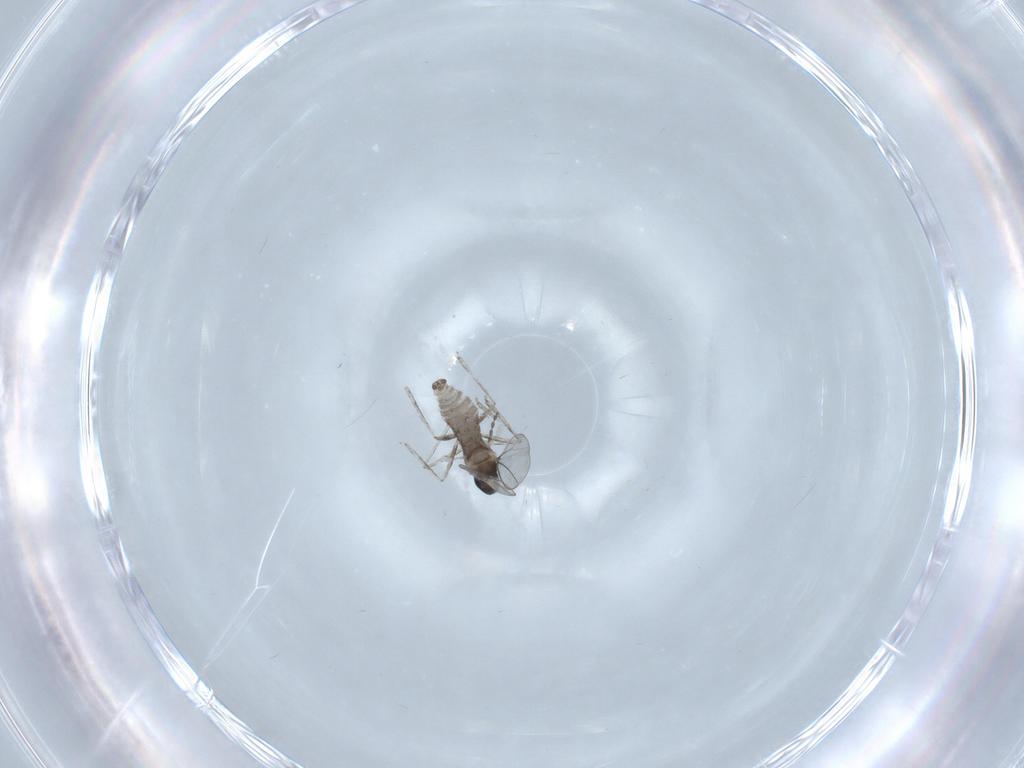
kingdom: Animalia
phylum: Arthropoda
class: Insecta
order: Diptera
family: Cecidomyiidae
